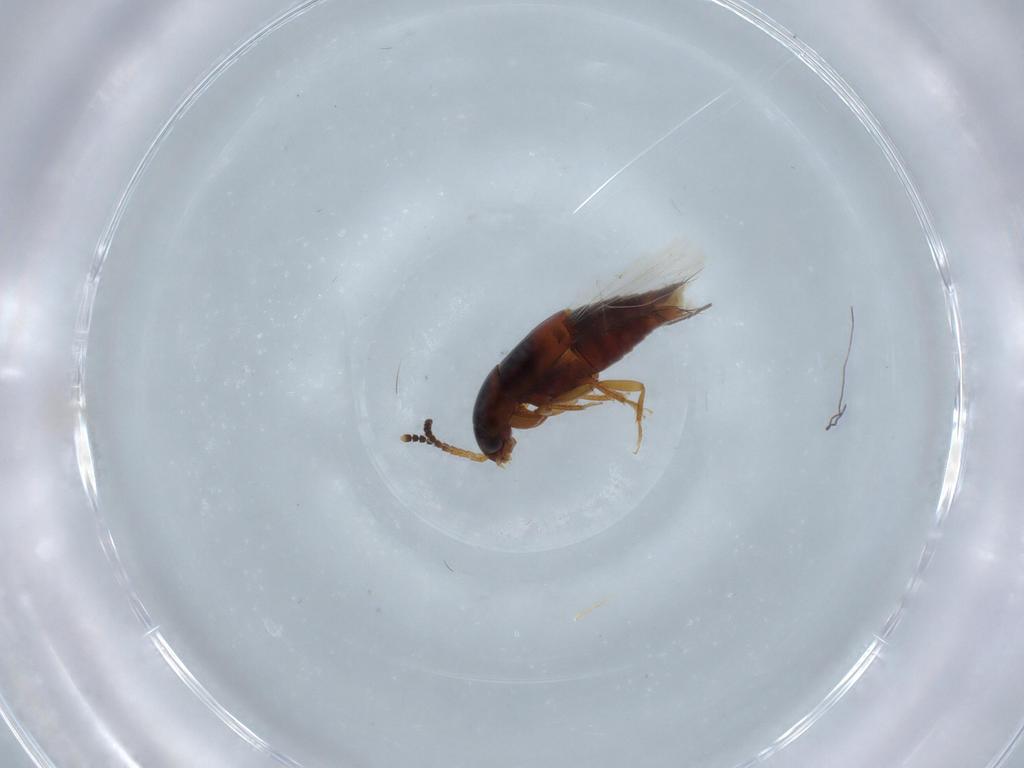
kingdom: Animalia
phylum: Arthropoda
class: Insecta
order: Coleoptera
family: Staphylinidae
